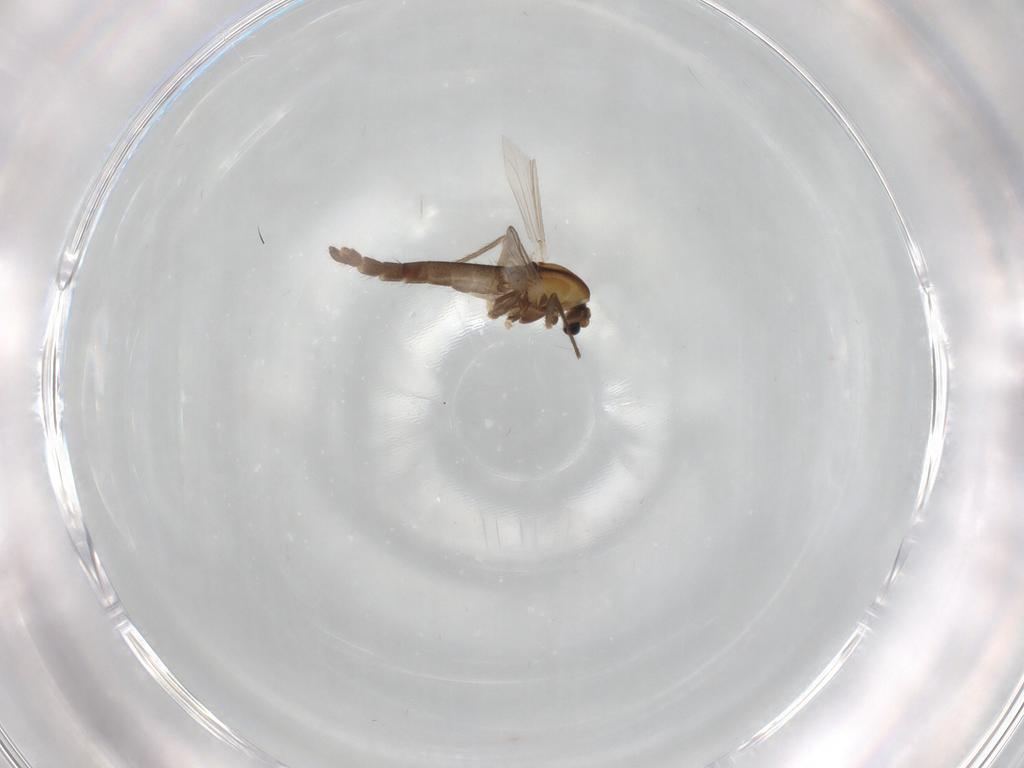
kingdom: Animalia
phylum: Arthropoda
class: Insecta
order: Diptera
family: Chironomidae
